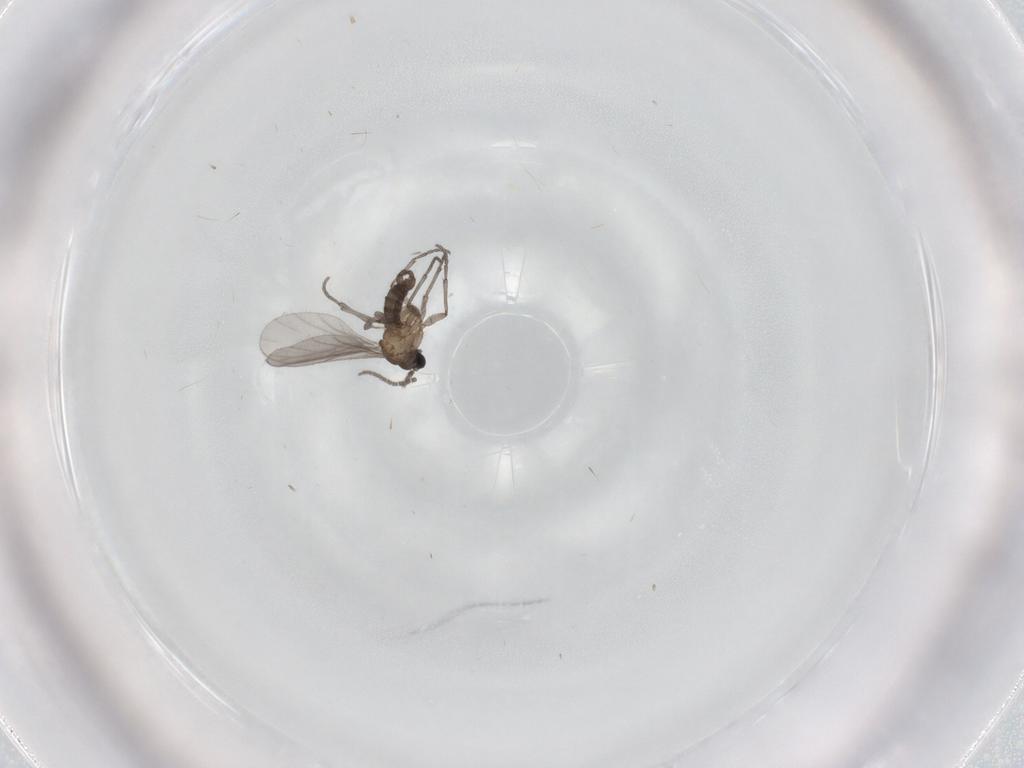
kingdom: Animalia
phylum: Arthropoda
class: Insecta
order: Diptera
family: Sciaridae
